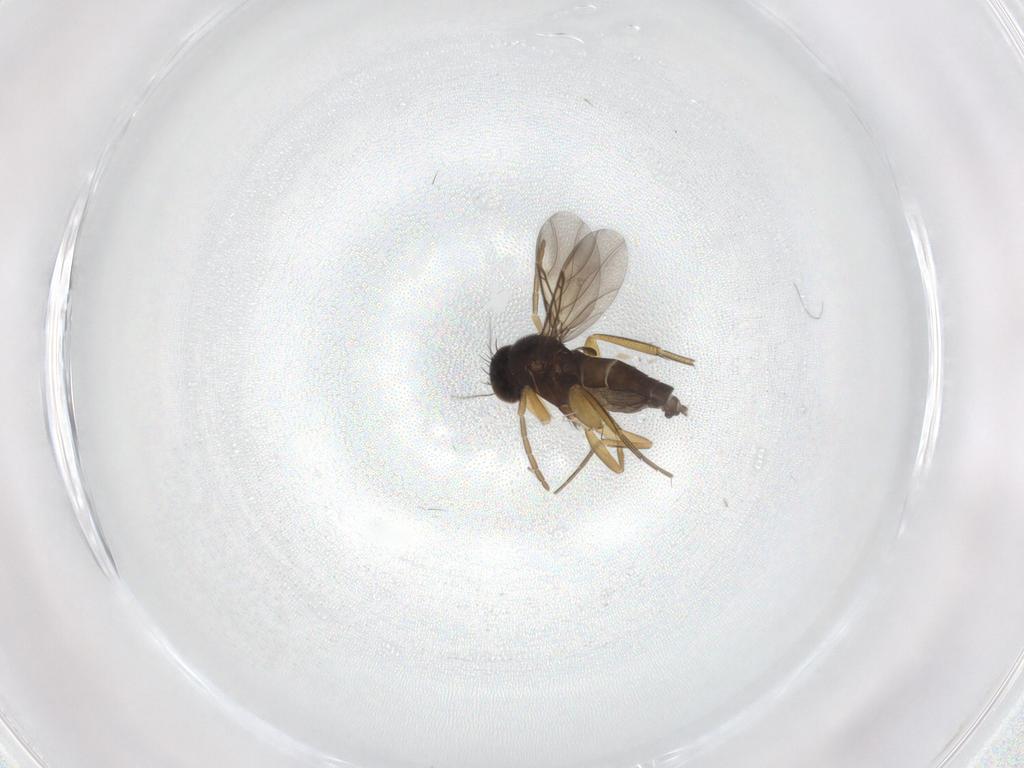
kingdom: Animalia
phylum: Arthropoda
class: Insecta
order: Diptera
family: Phoridae
